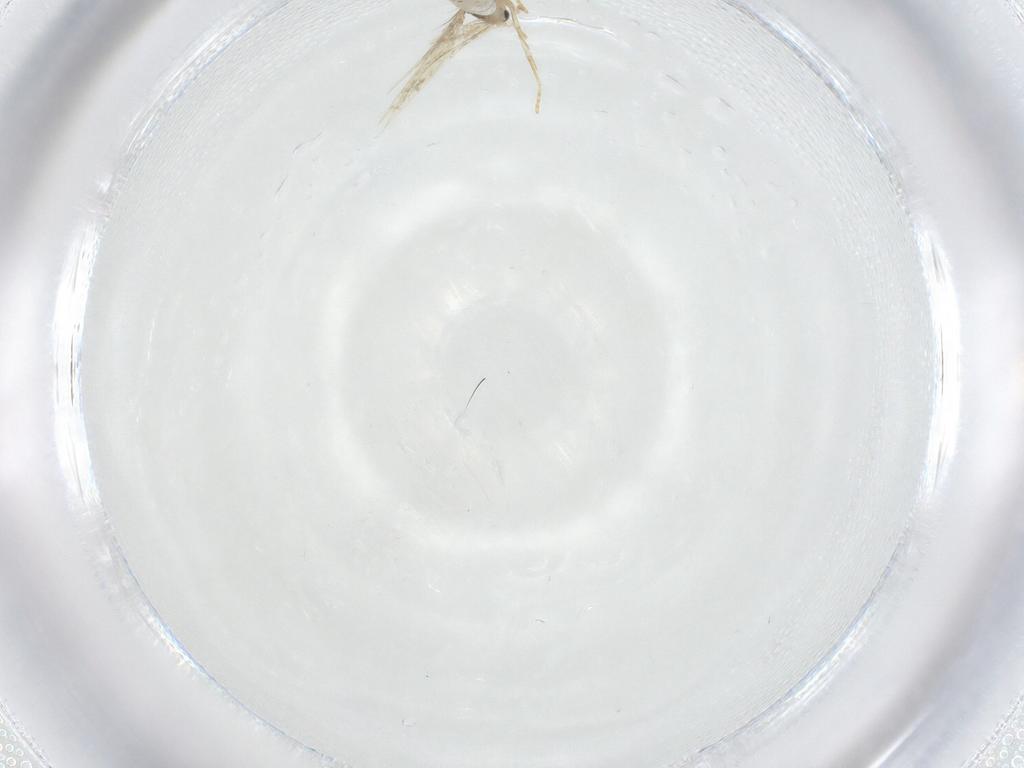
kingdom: Animalia
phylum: Arthropoda
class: Insecta
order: Lepidoptera
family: Nepticulidae
